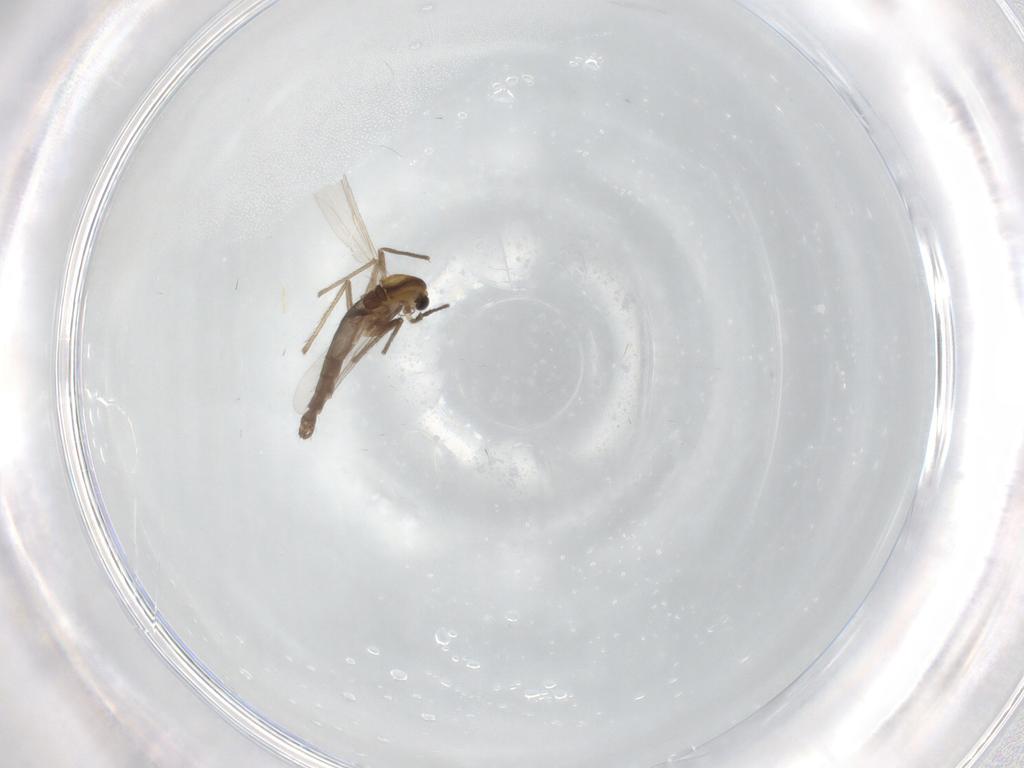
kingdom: Animalia
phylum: Arthropoda
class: Insecta
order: Diptera
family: Chironomidae
